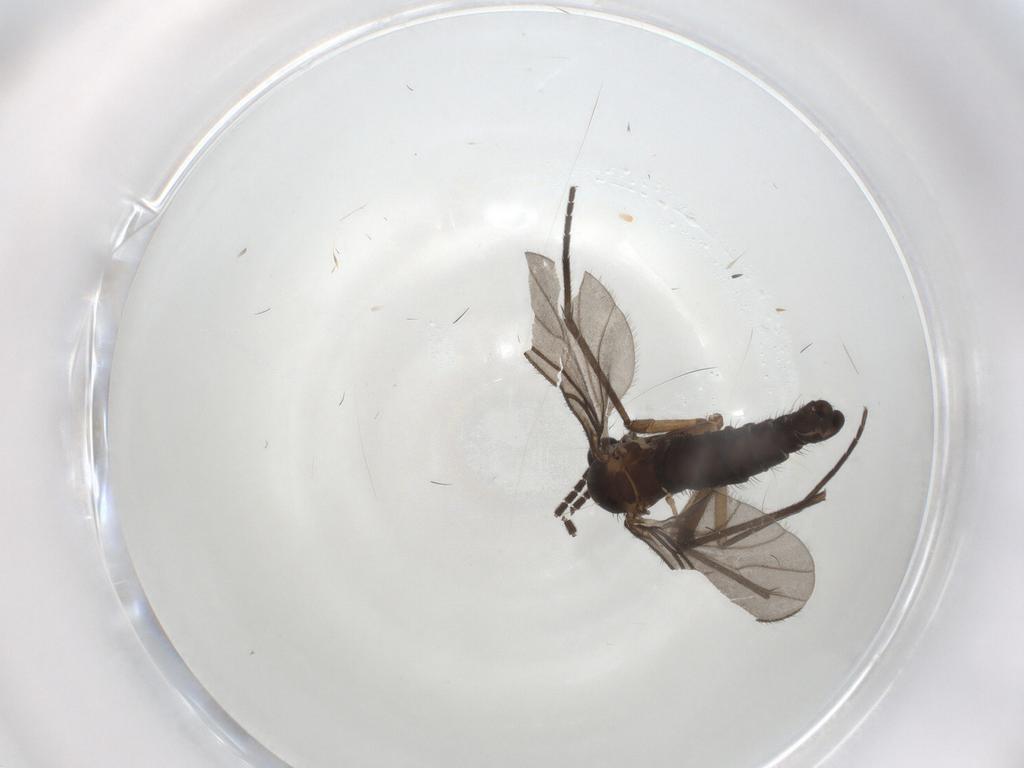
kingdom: Animalia
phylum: Arthropoda
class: Insecta
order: Diptera
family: Sciaridae
